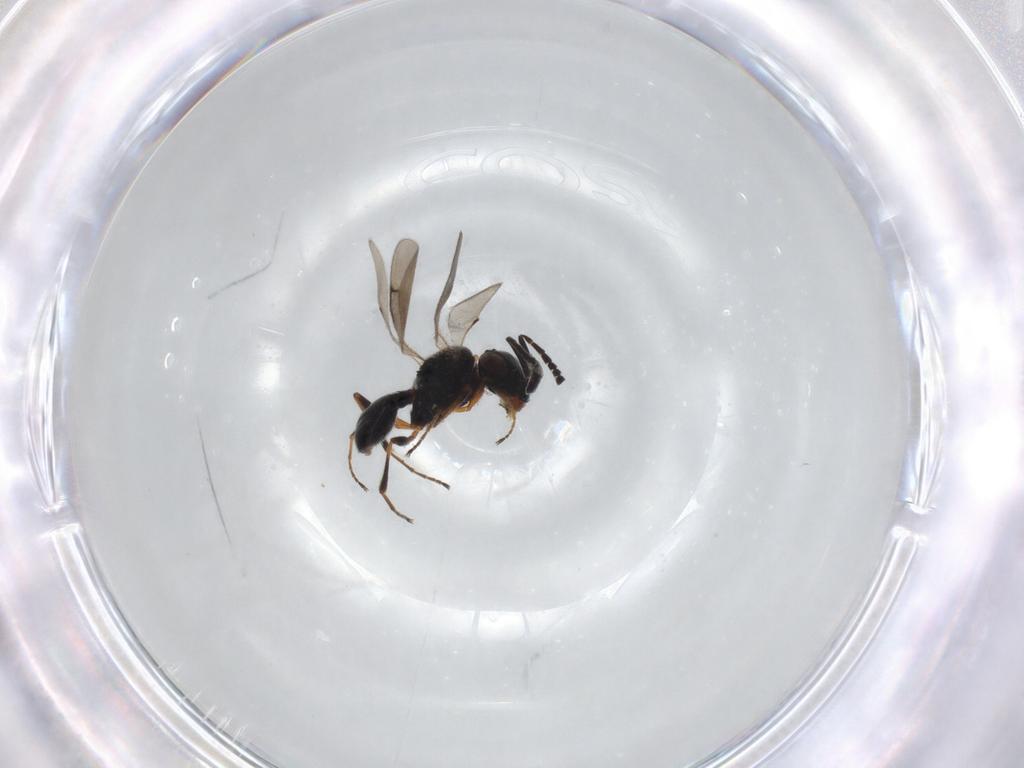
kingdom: Animalia
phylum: Arthropoda
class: Insecta
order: Hymenoptera
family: Scelionidae
